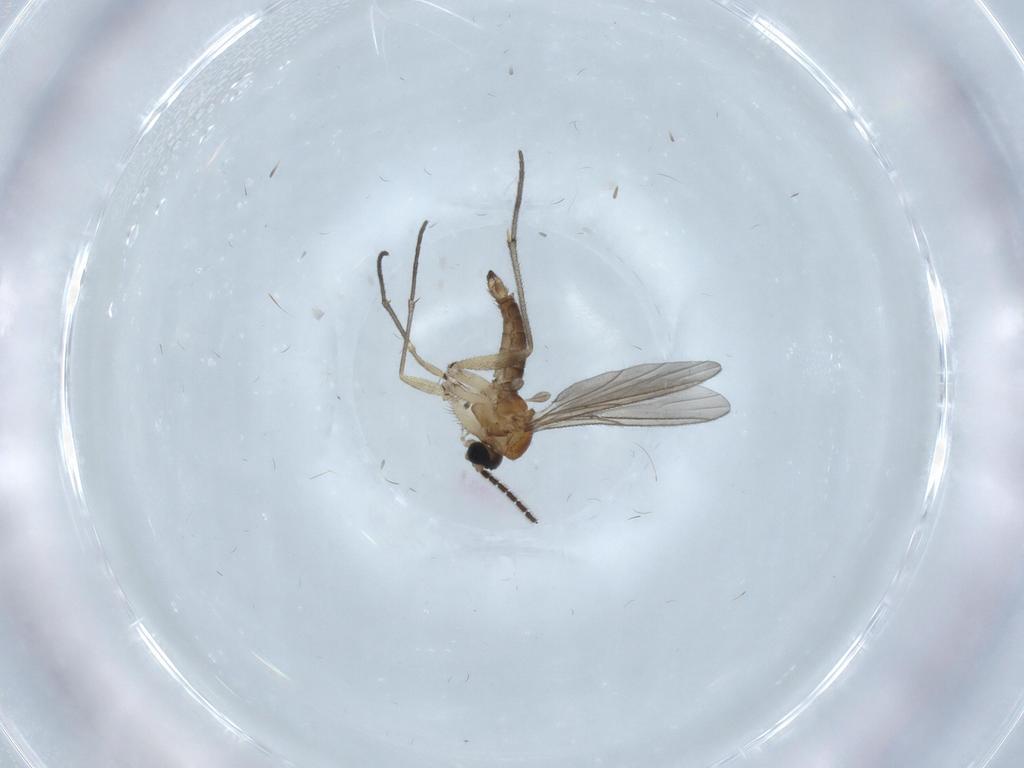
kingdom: Animalia
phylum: Arthropoda
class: Insecta
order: Diptera
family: Sciaridae
